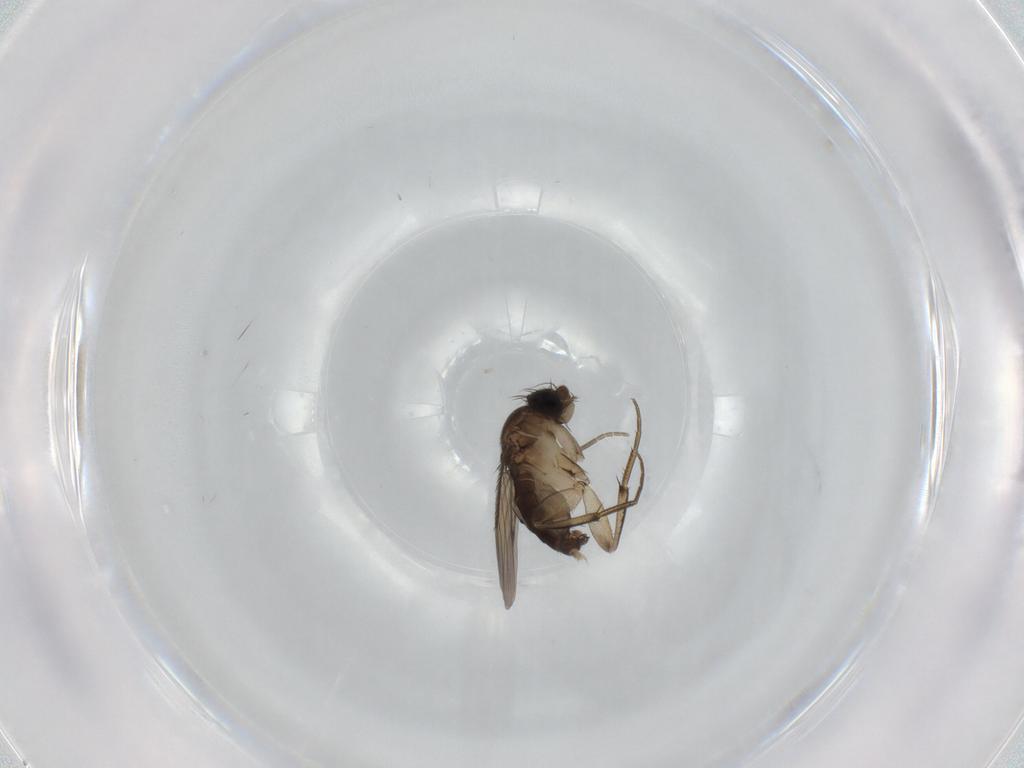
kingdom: Animalia
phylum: Arthropoda
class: Insecta
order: Diptera
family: Phoridae
